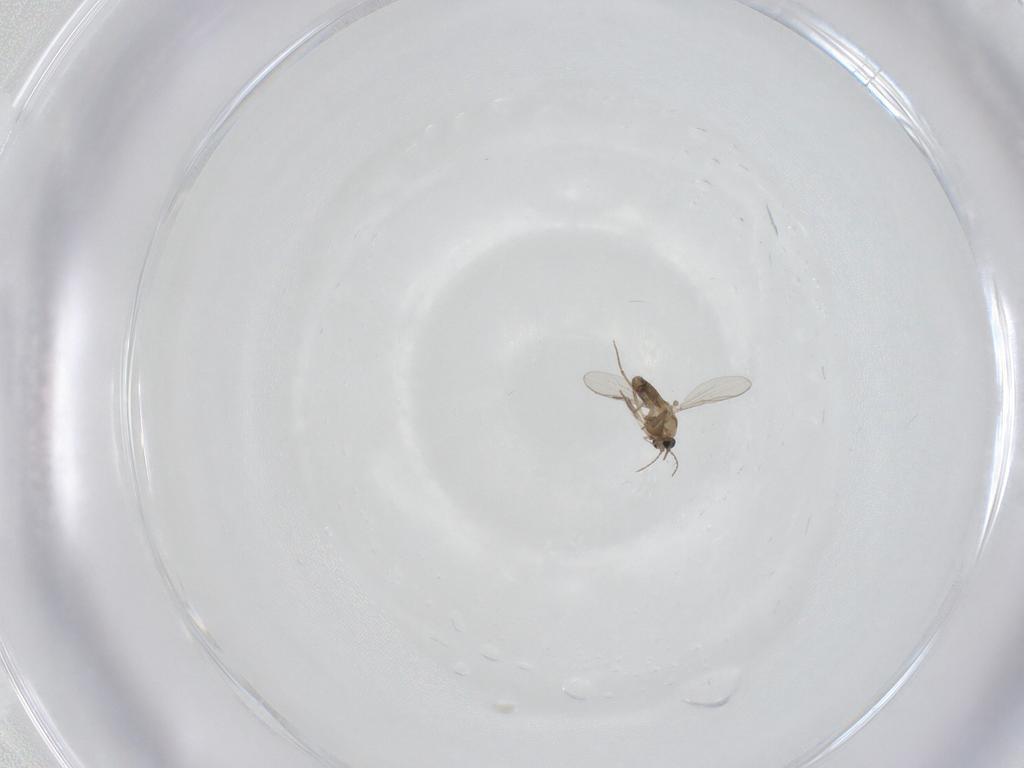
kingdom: Animalia
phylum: Arthropoda
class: Insecta
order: Diptera
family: Chironomidae
